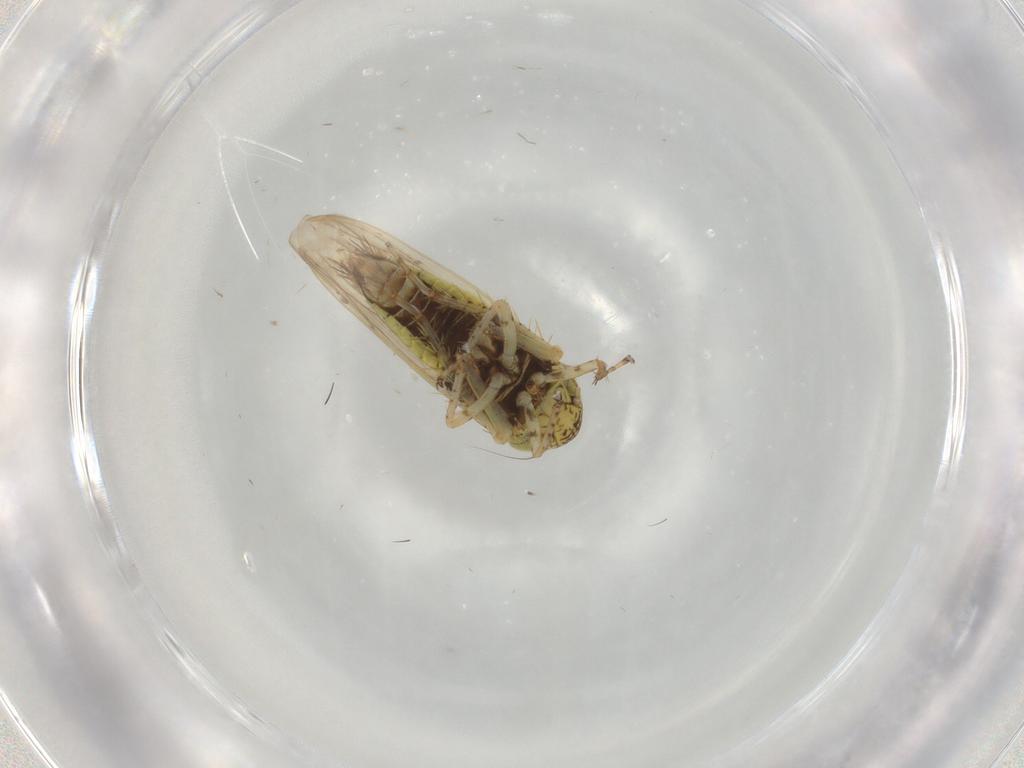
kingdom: Animalia
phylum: Arthropoda
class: Insecta
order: Hemiptera
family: Cicadellidae
